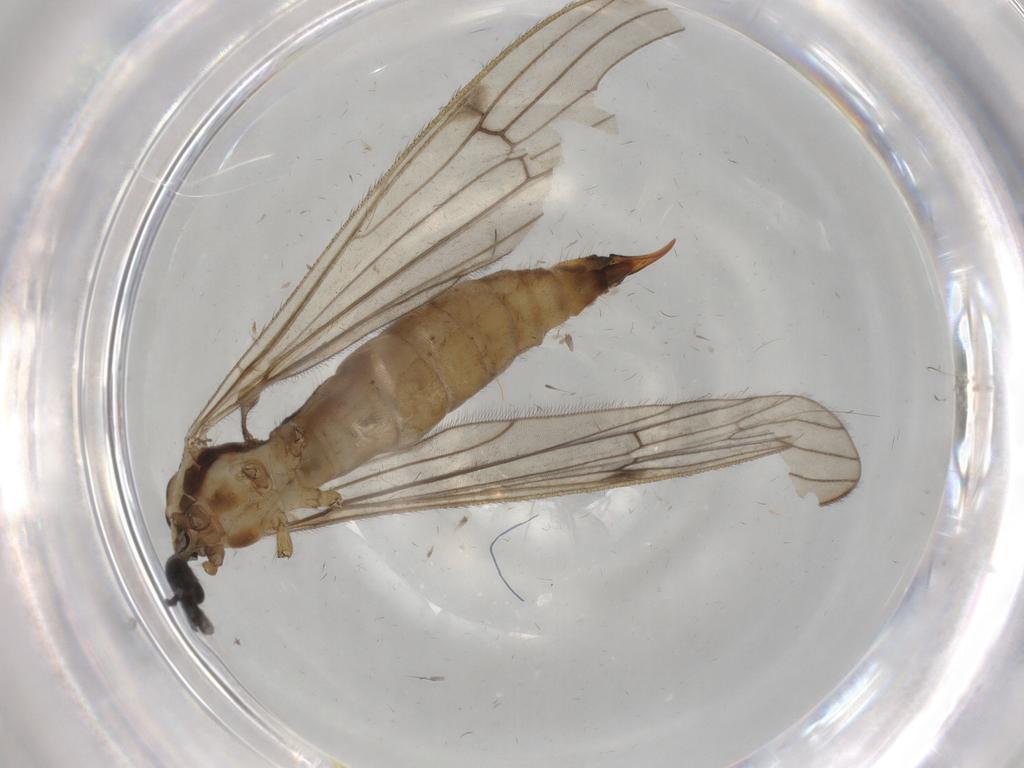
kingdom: Animalia
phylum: Arthropoda
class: Insecta
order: Diptera
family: Limoniidae
